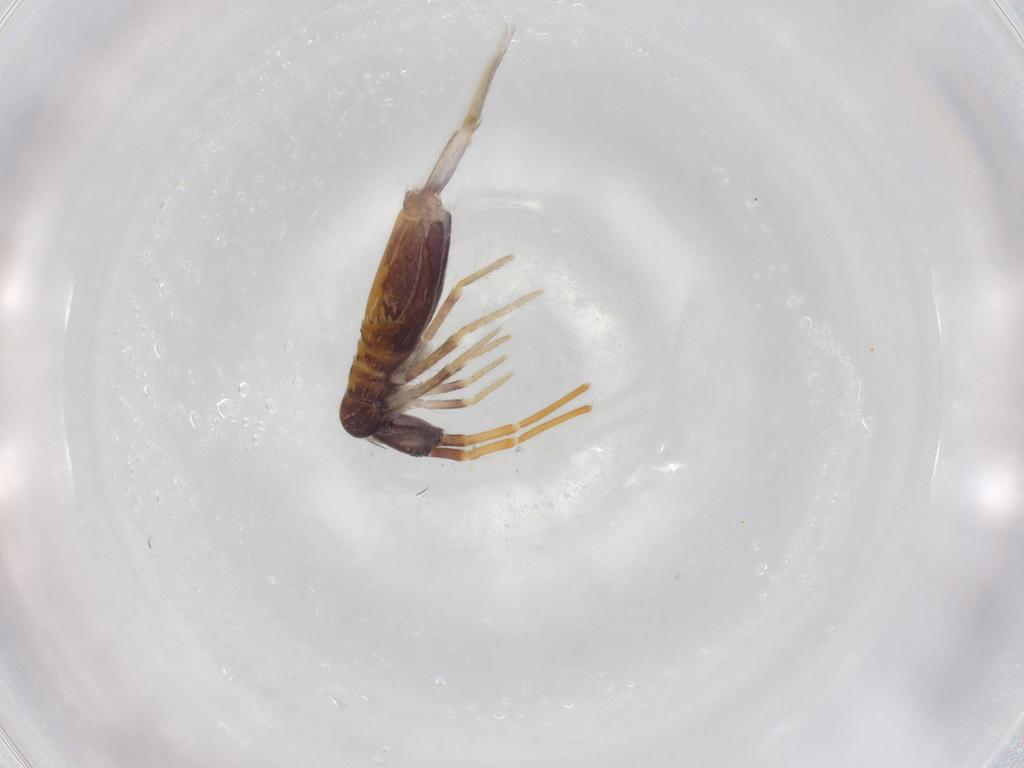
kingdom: Animalia
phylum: Arthropoda
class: Collembola
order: Entomobryomorpha
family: Entomobryidae
